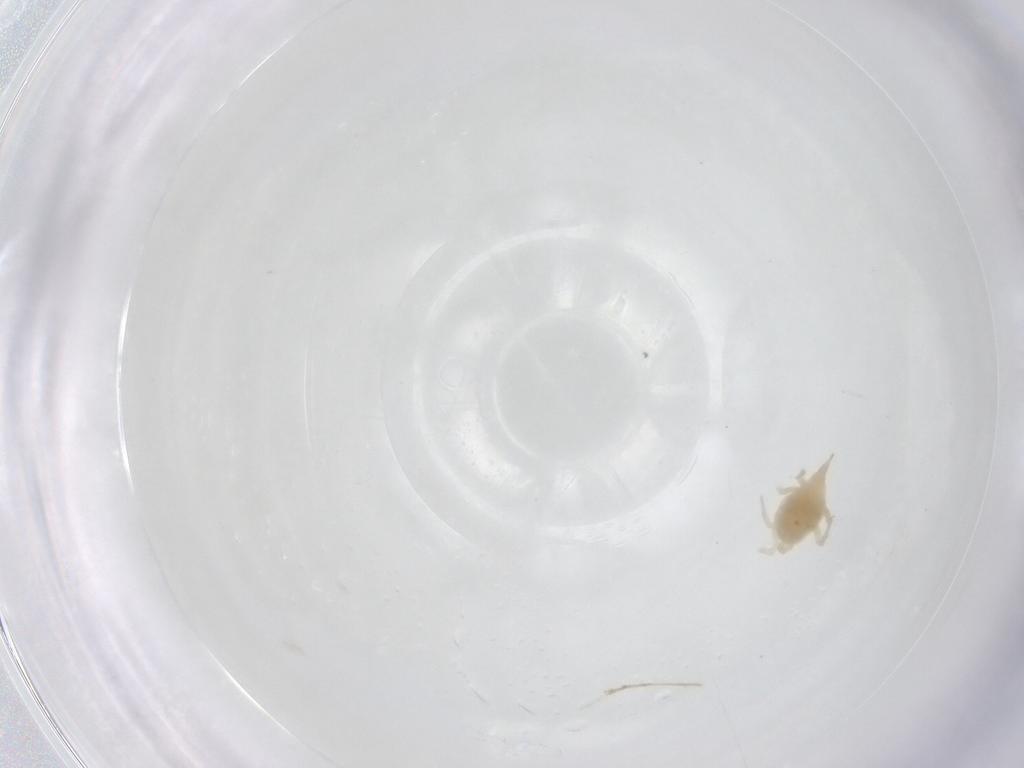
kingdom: Animalia
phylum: Arthropoda
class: Arachnida
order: Trombidiformes
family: Bdellidae
